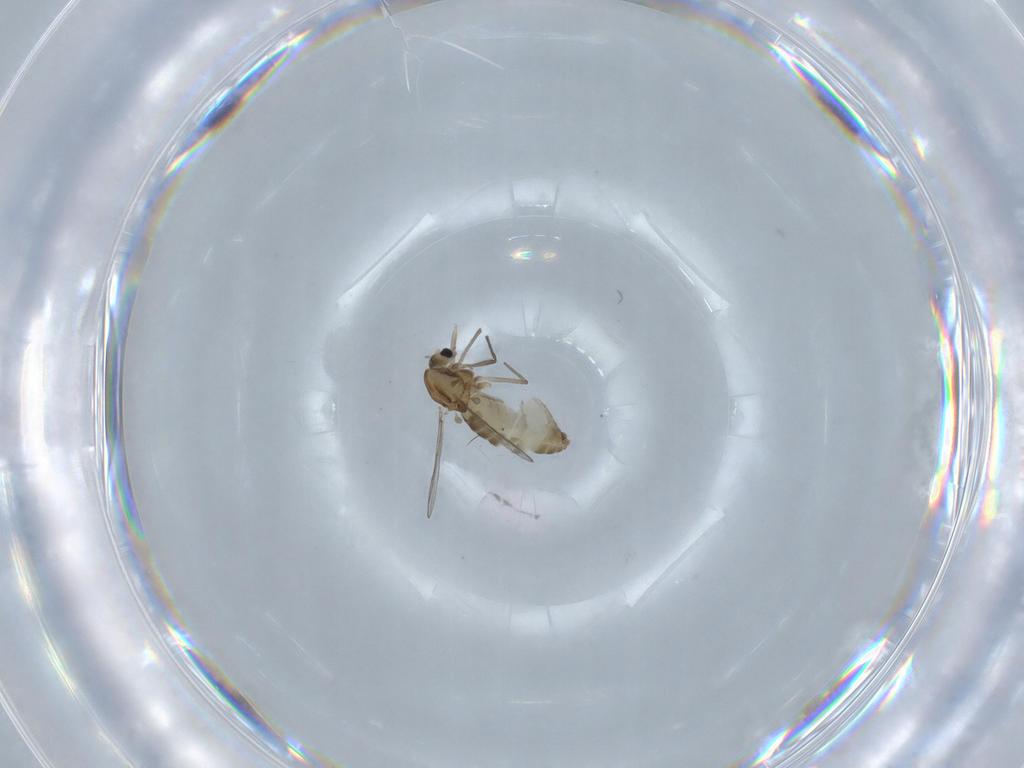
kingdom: Animalia
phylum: Arthropoda
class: Insecta
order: Diptera
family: Chironomidae
